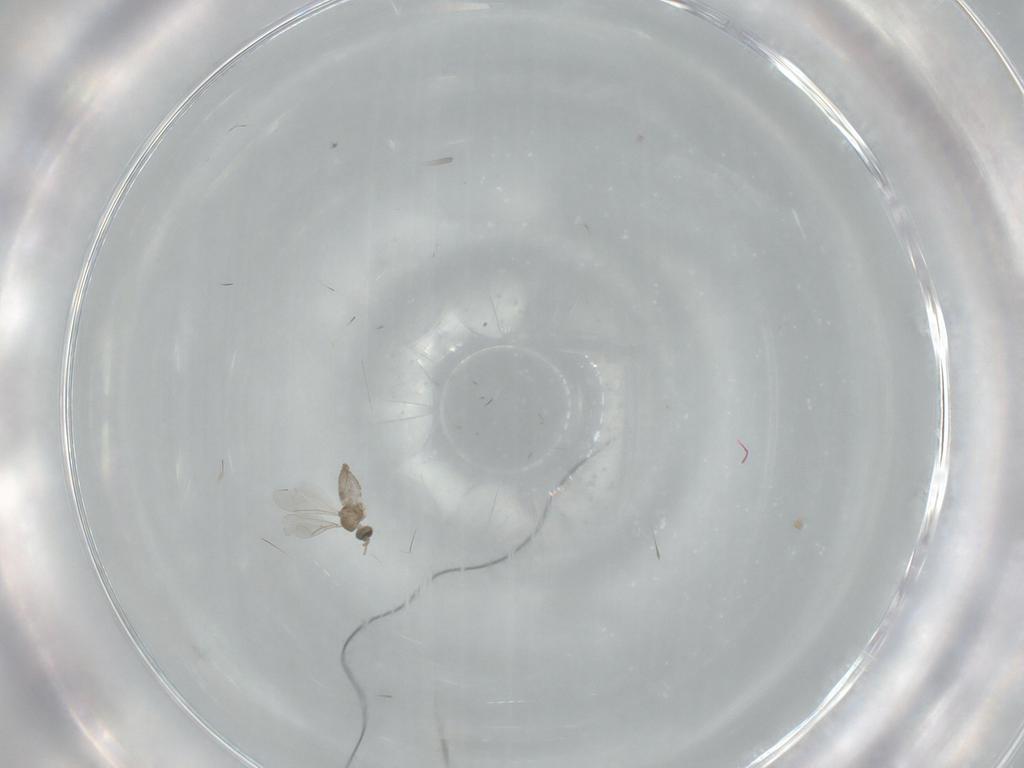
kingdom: Animalia
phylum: Arthropoda
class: Insecta
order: Diptera
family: Cecidomyiidae
